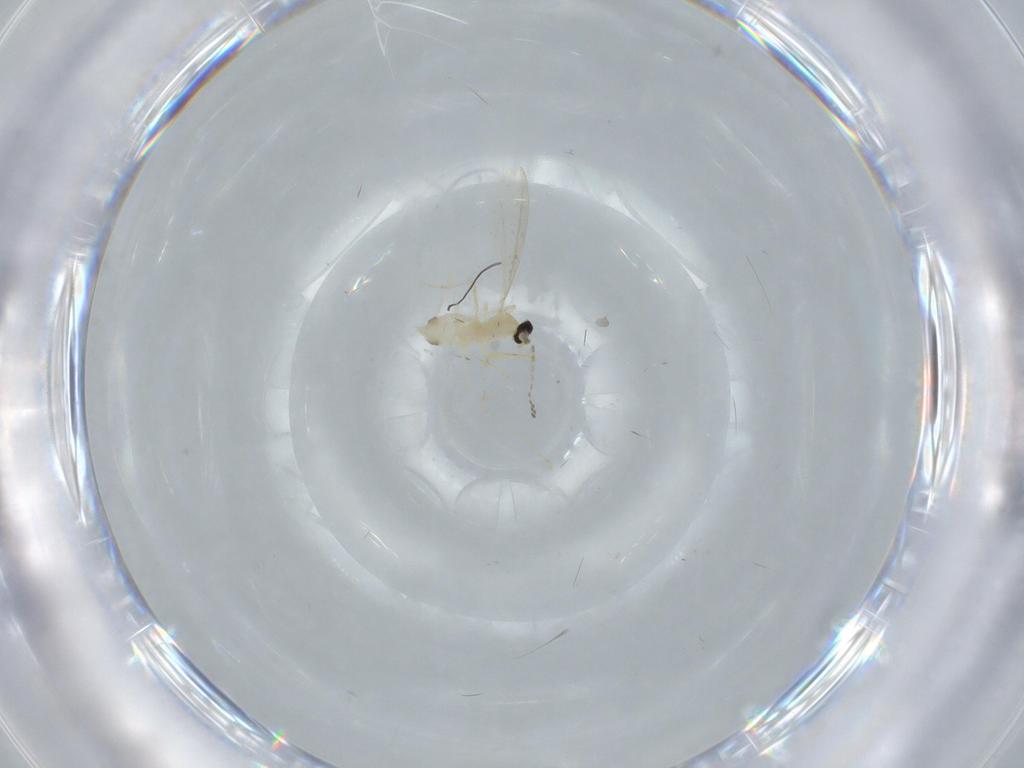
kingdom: Animalia
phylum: Arthropoda
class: Insecta
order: Diptera
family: Cecidomyiidae
